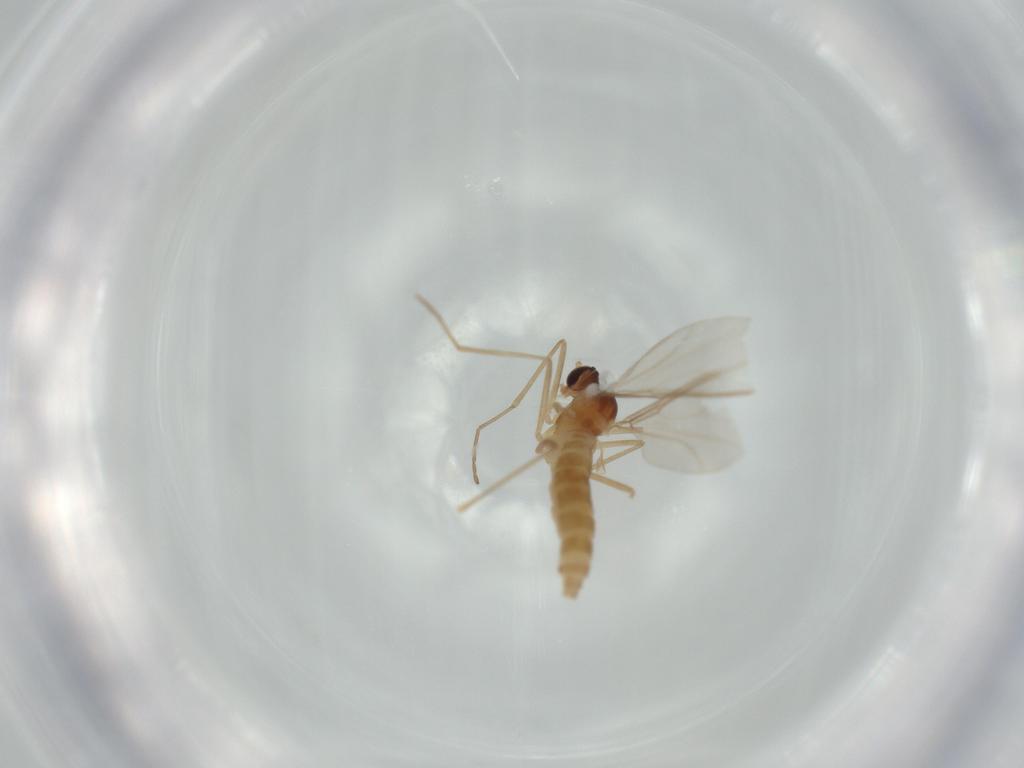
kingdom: Animalia
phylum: Arthropoda
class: Insecta
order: Diptera
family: Cecidomyiidae
